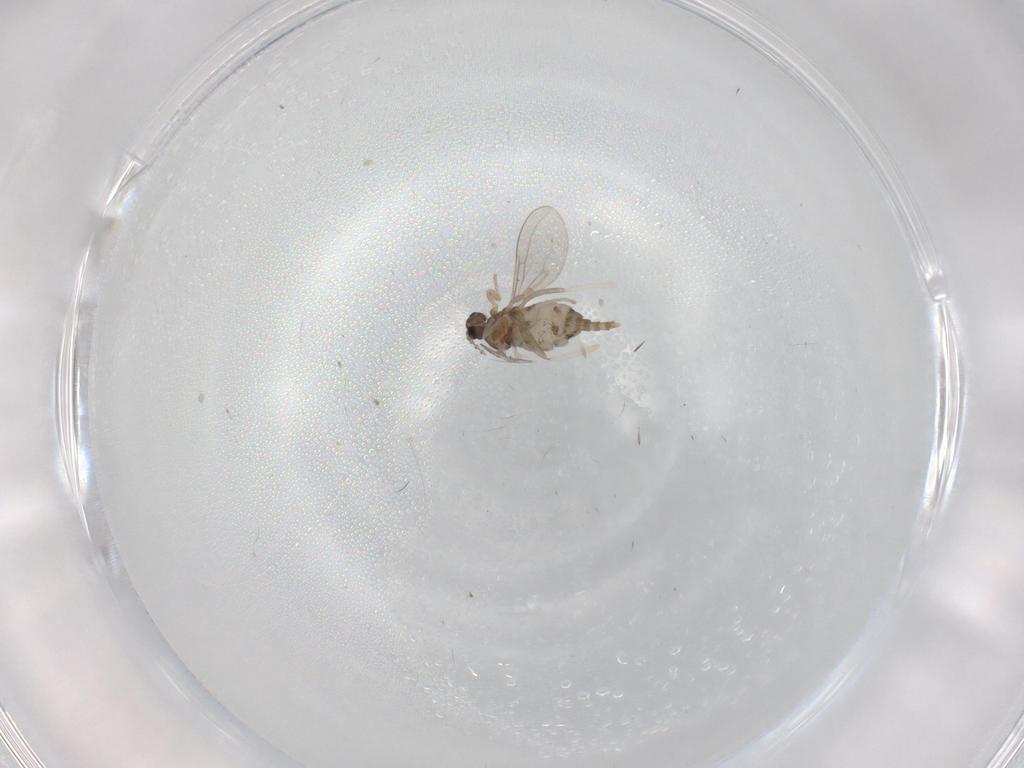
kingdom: Animalia
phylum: Arthropoda
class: Insecta
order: Diptera
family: Cecidomyiidae
